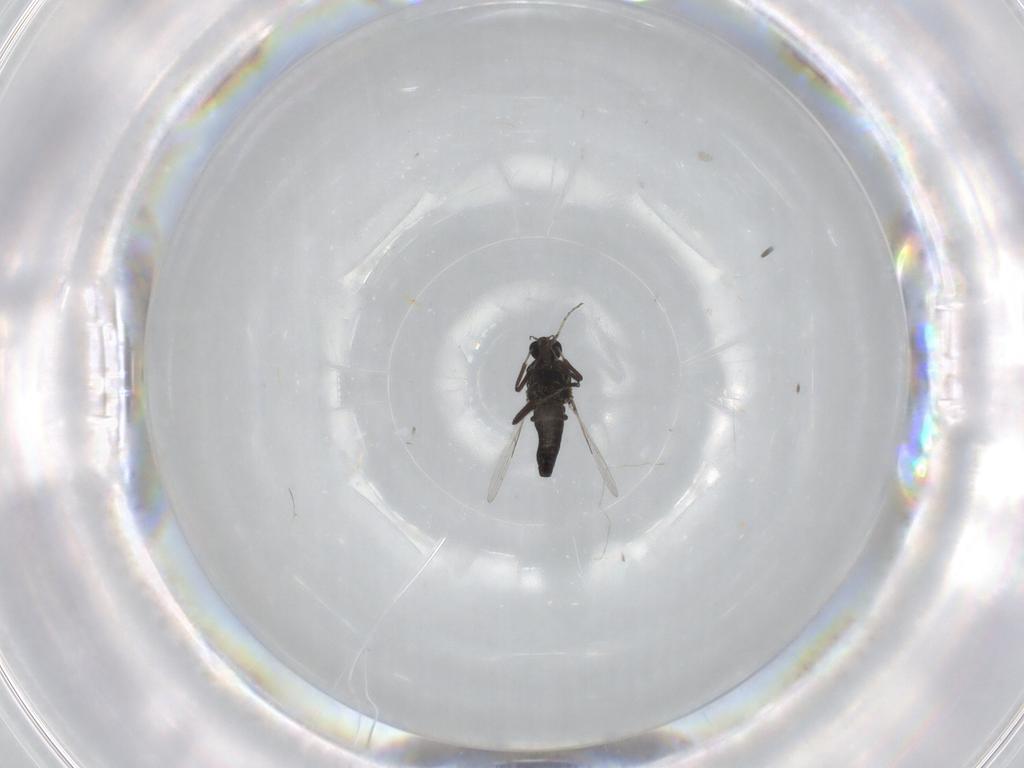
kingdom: Animalia
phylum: Arthropoda
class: Insecta
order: Diptera
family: Ceratopogonidae
